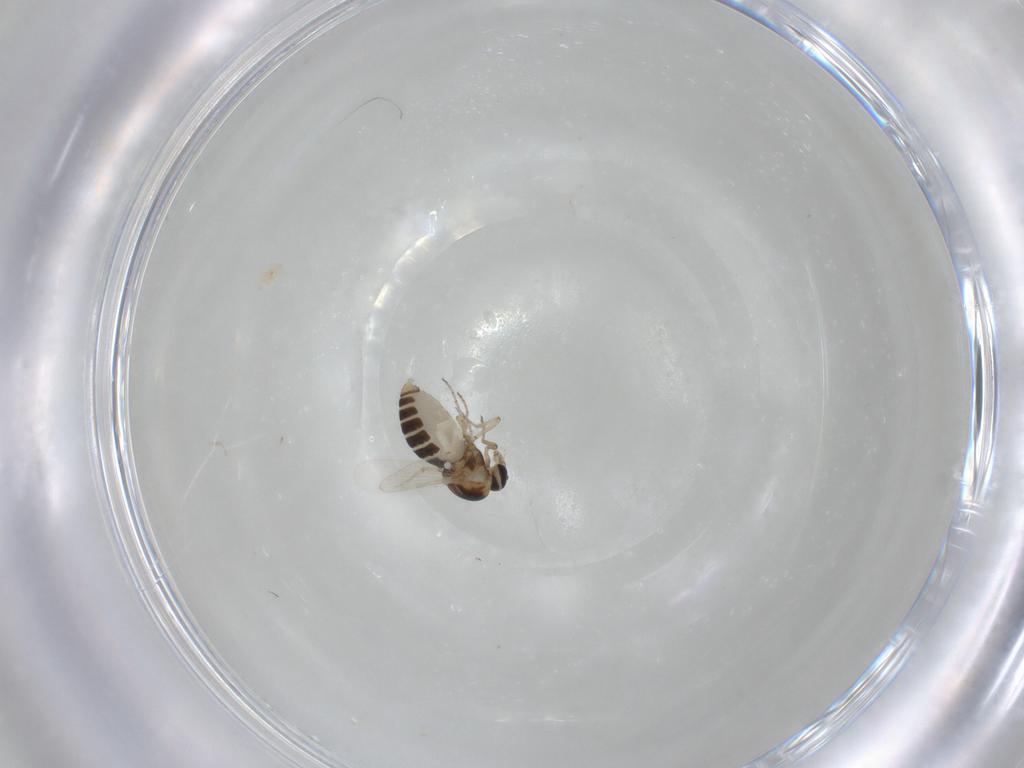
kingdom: Animalia
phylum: Arthropoda
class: Insecta
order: Diptera
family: Ceratopogonidae
